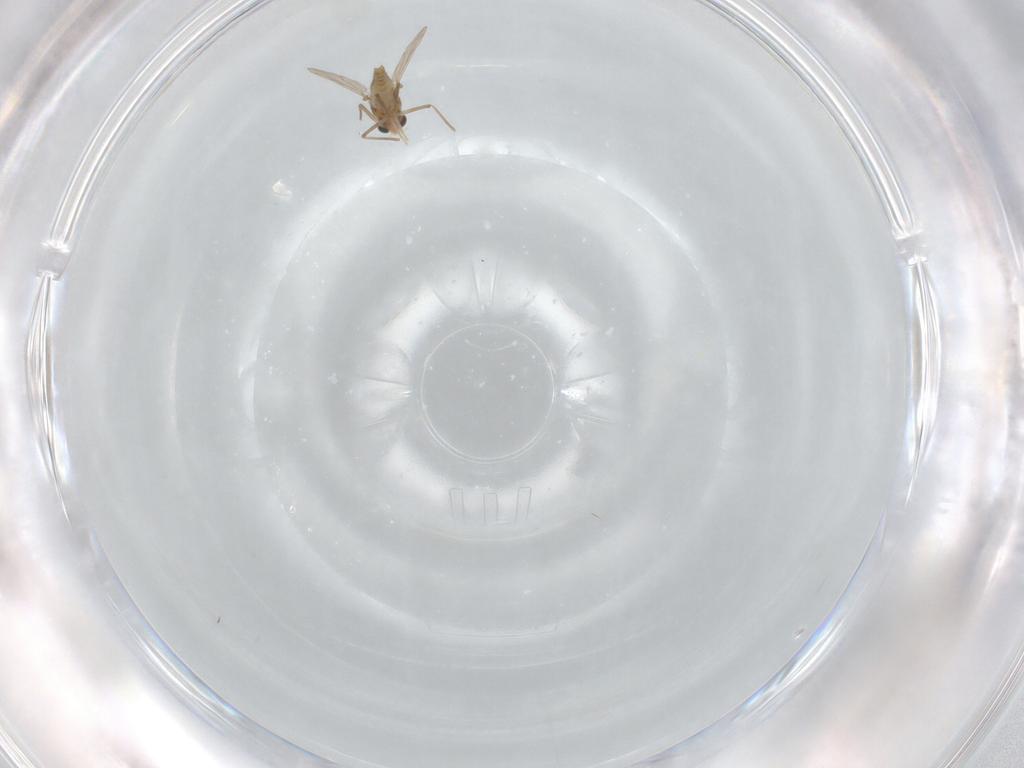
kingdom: Animalia
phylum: Arthropoda
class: Insecta
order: Diptera
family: Chironomidae
